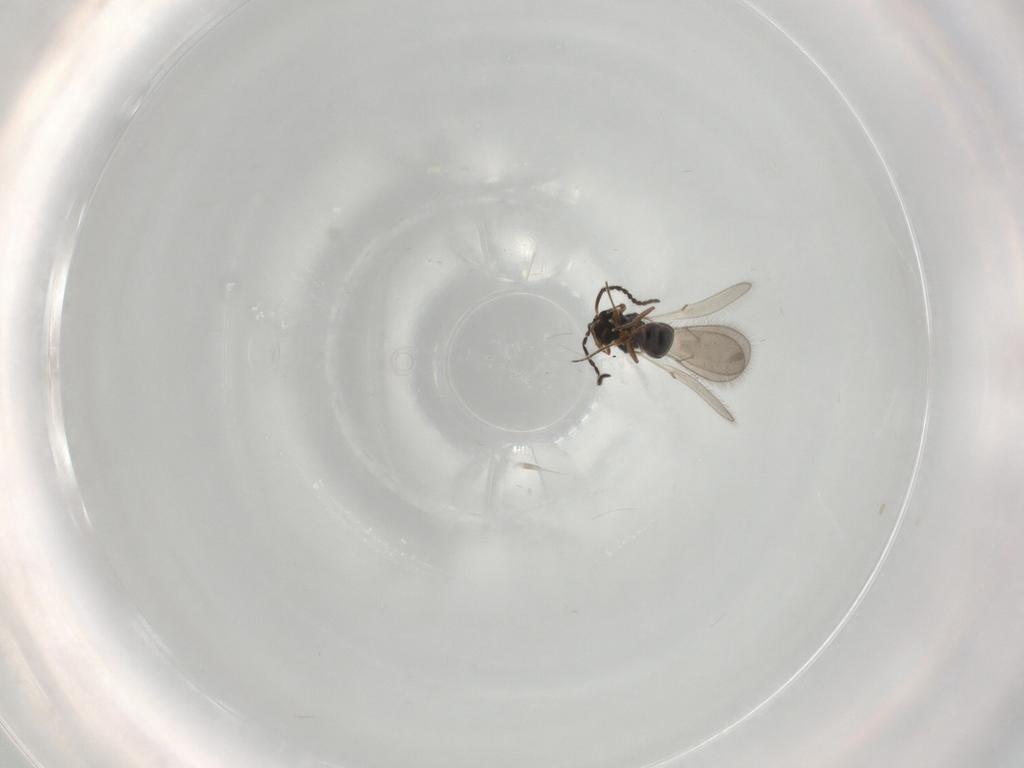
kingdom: Animalia
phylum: Arthropoda
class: Insecta
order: Hymenoptera
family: Scelionidae
